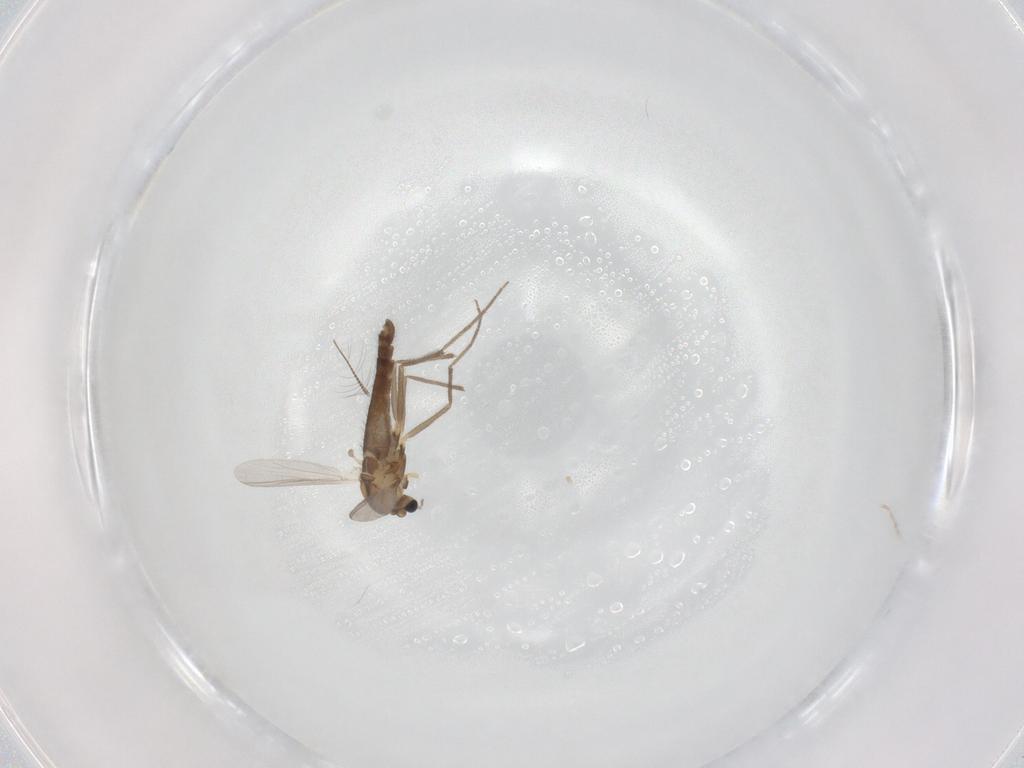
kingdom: Animalia
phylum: Arthropoda
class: Insecta
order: Diptera
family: Chironomidae
